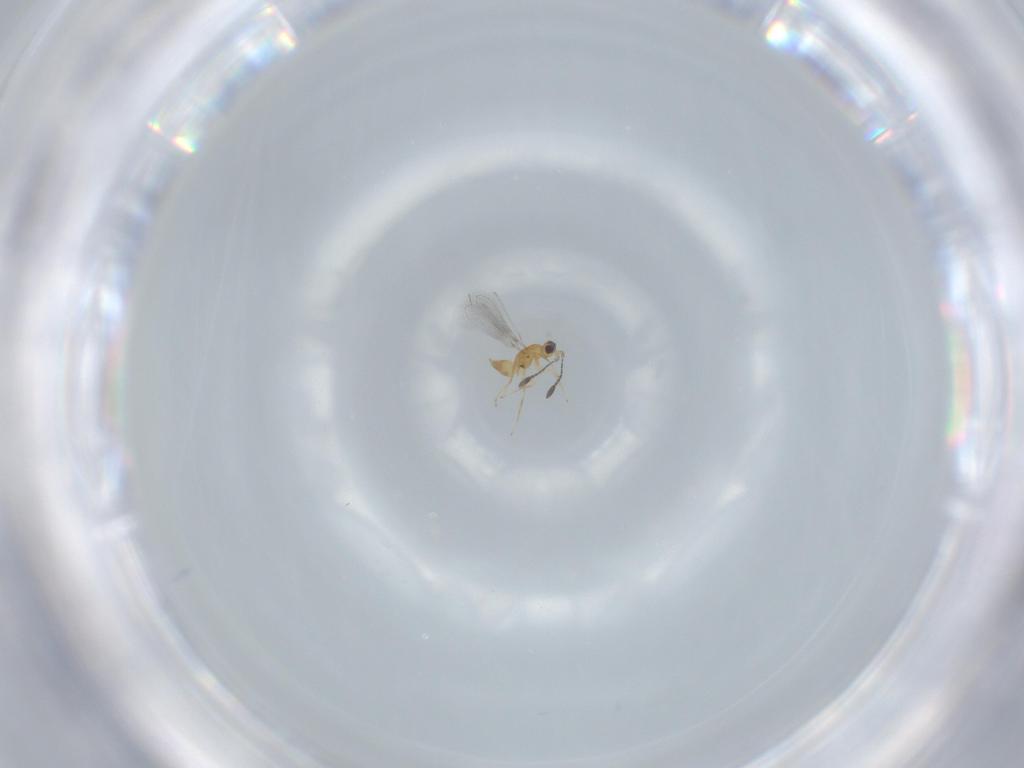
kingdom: Animalia
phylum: Arthropoda
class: Insecta
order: Hymenoptera
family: Mymaridae
